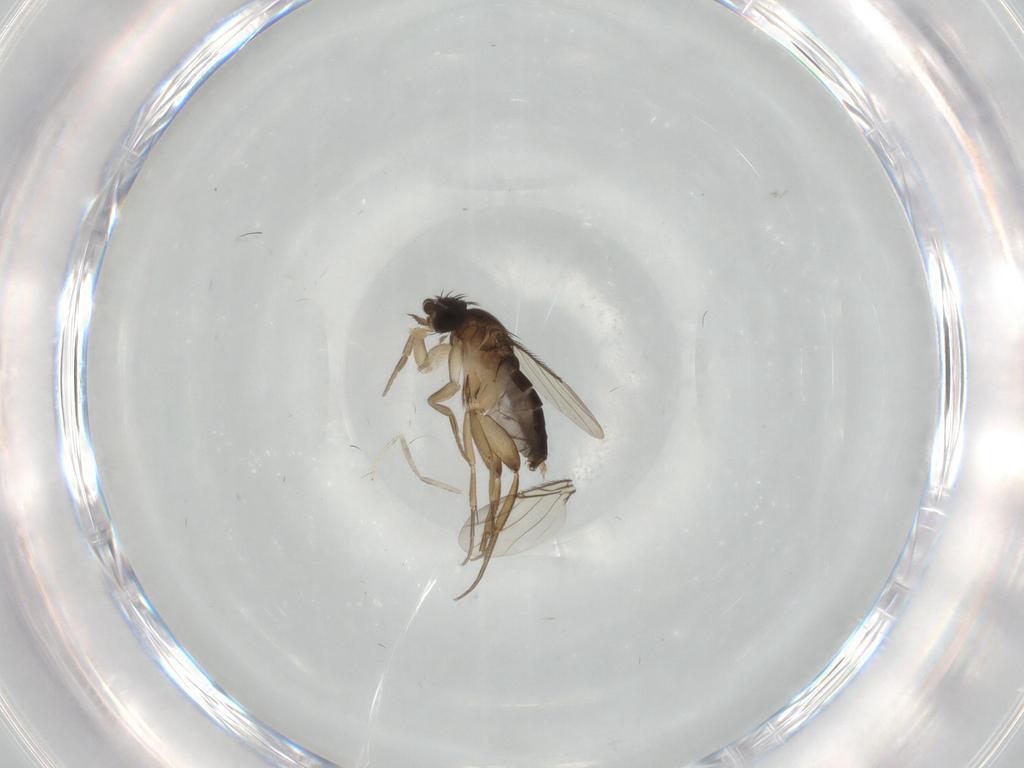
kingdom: Animalia
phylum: Arthropoda
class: Insecta
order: Diptera
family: Phoridae
